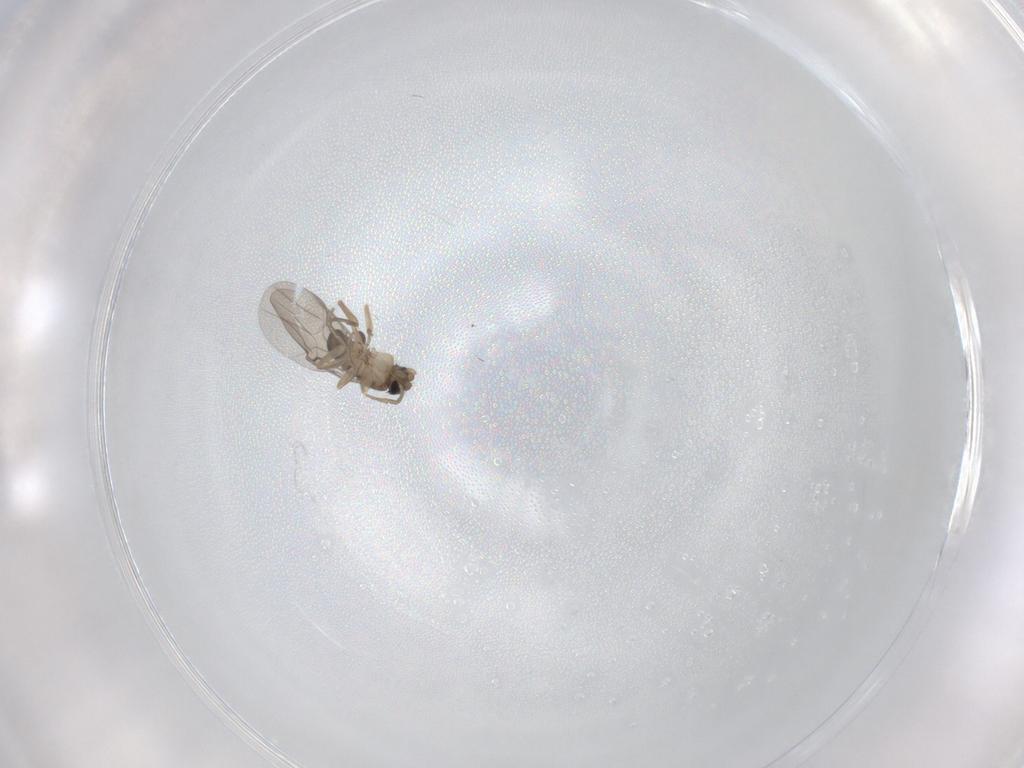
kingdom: Animalia
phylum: Arthropoda
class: Insecta
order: Diptera
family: Phoridae
